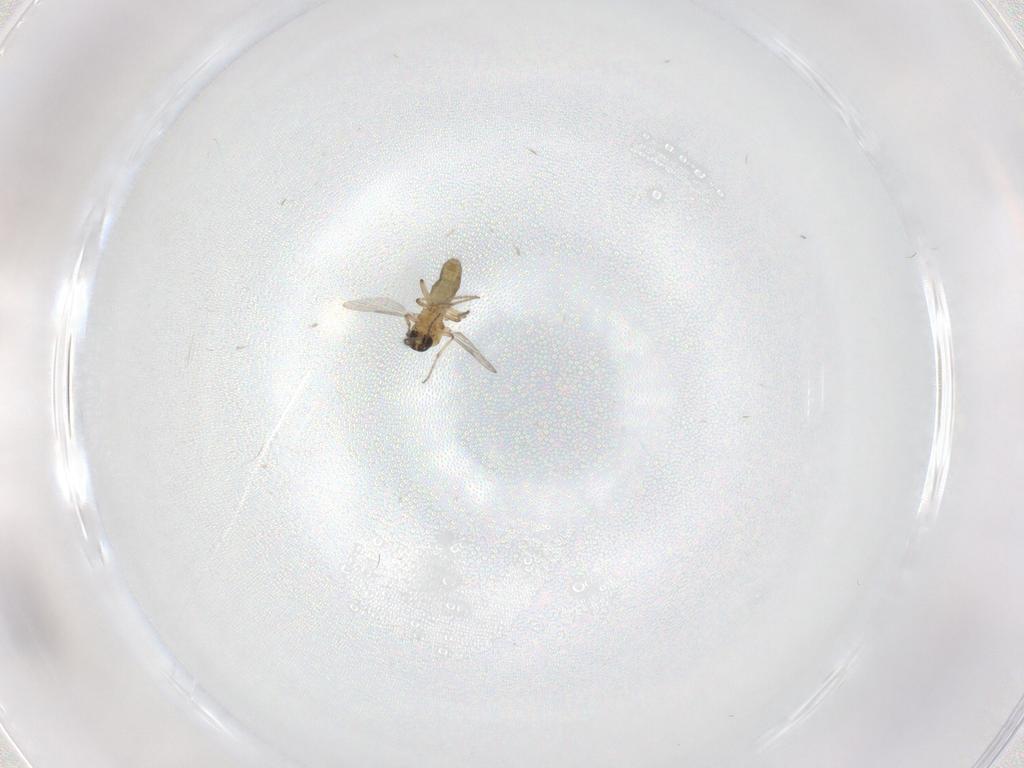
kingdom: Animalia
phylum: Arthropoda
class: Insecta
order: Diptera
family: Ceratopogonidae
